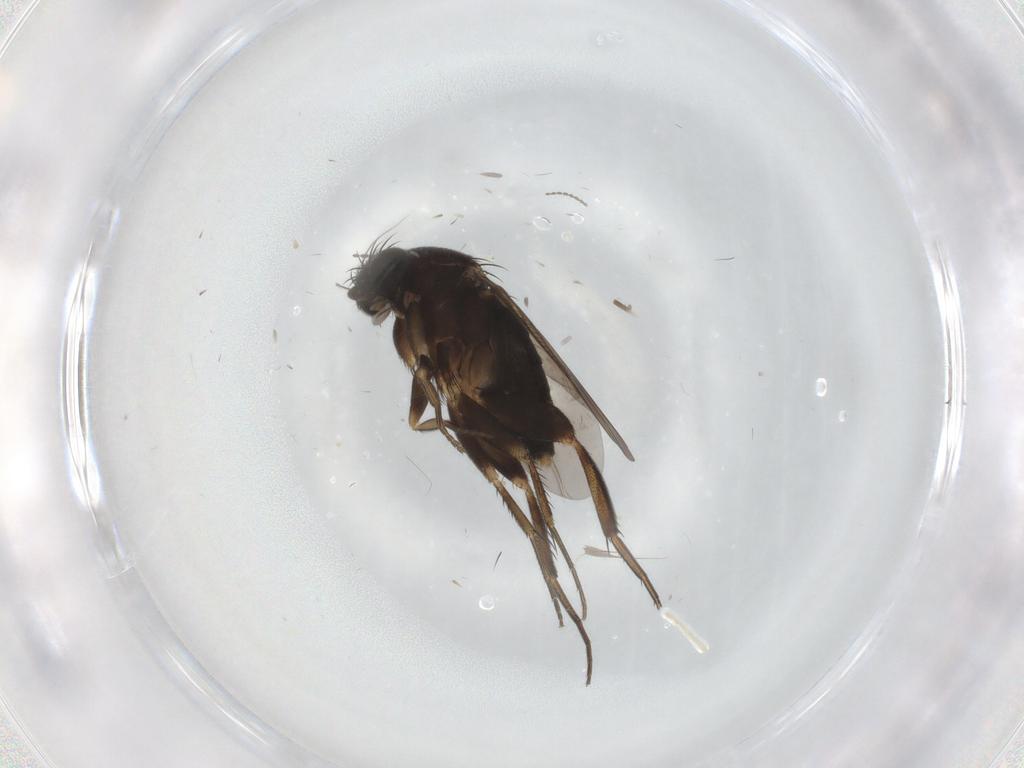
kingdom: Animalia
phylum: Arthropoda
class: Insecta
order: Diptera
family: Phoridae
